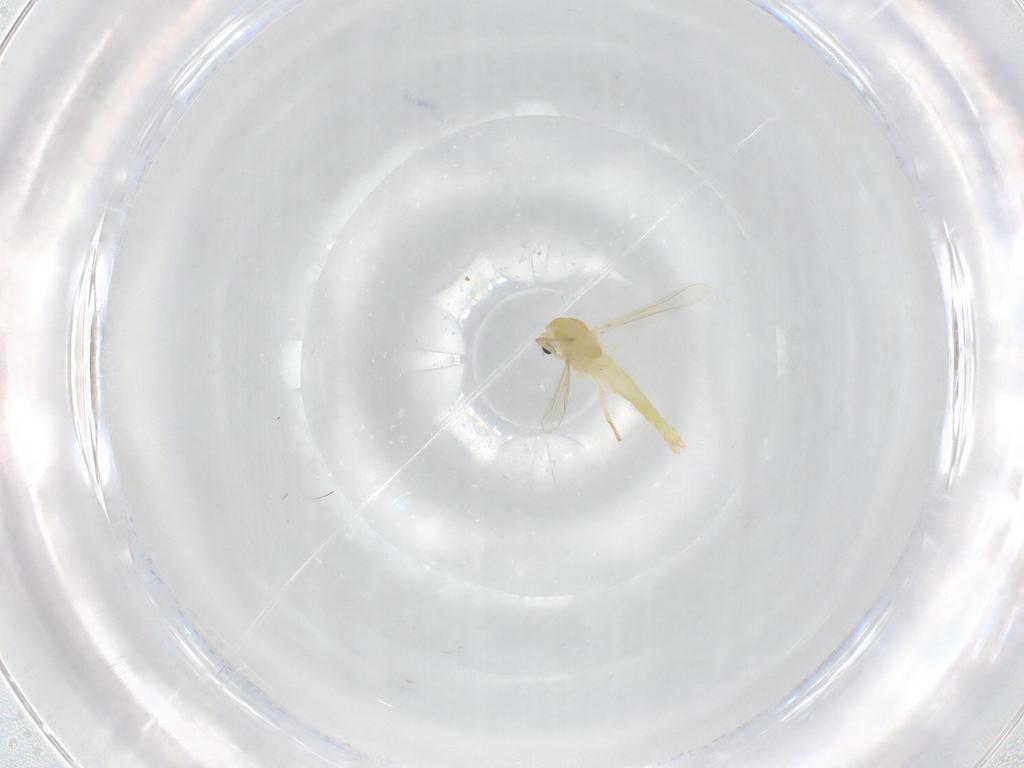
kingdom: Animalia
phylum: Arthropoda
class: Insecta
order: Diptera
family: Chironomidae
